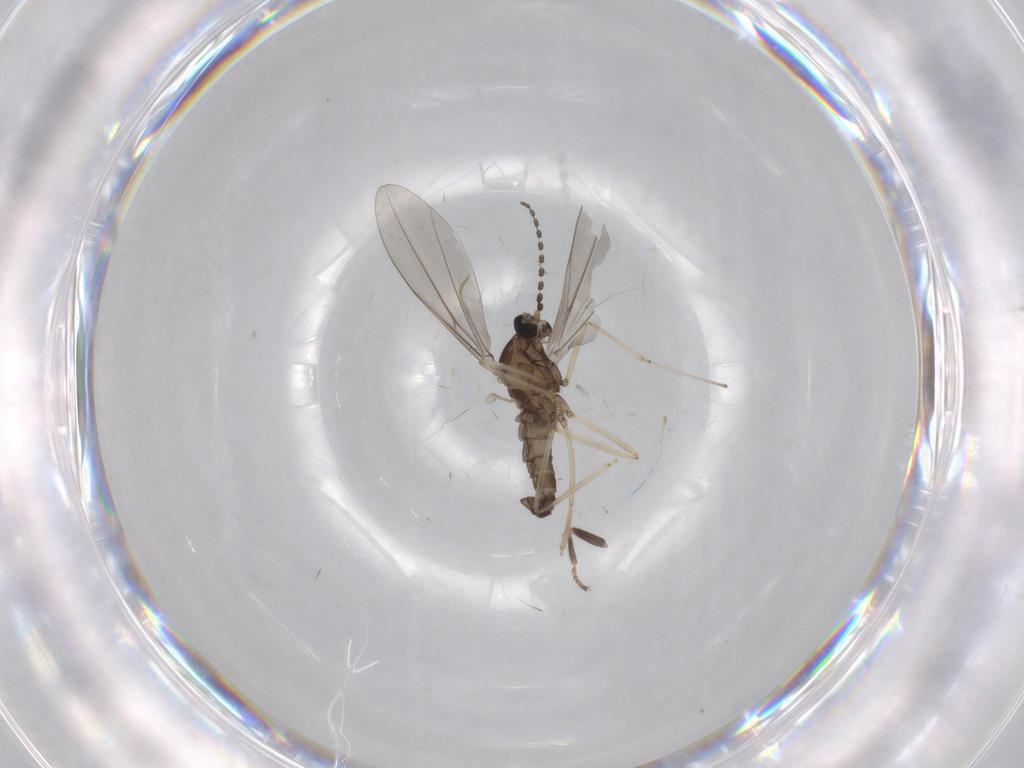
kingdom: Animalia
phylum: Arthropoda
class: Insecta
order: Diptera
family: Scatopsidae
